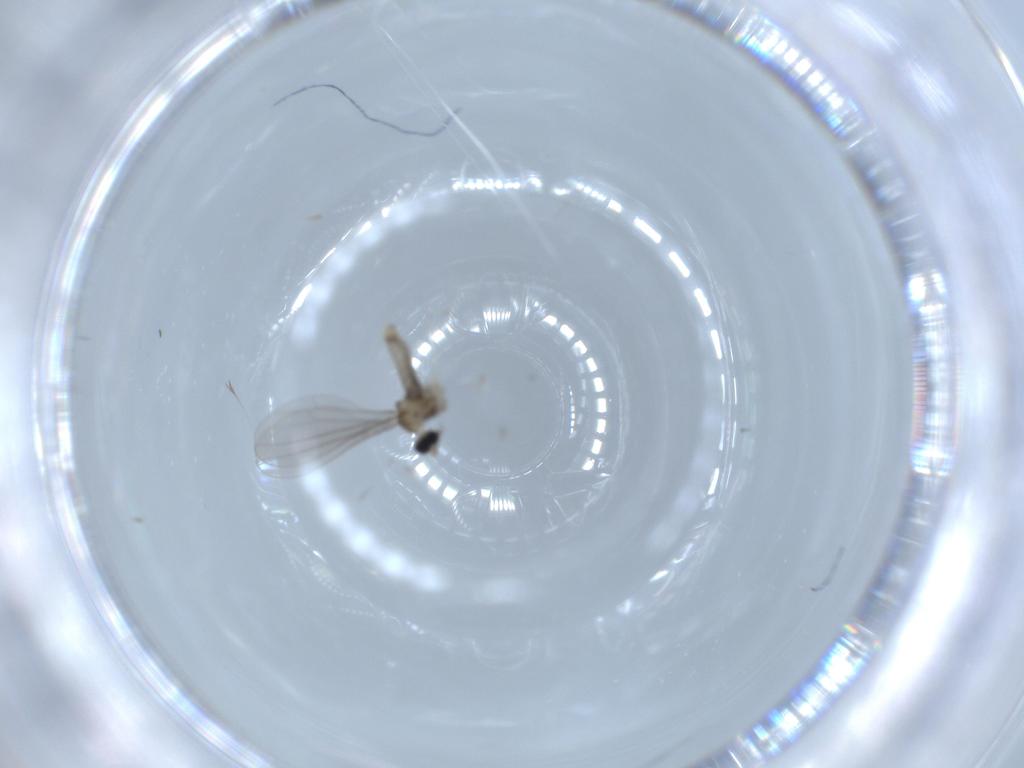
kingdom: Animalia
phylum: Arthropoda
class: Insecta
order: Diptera
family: Cecidomyiidae
